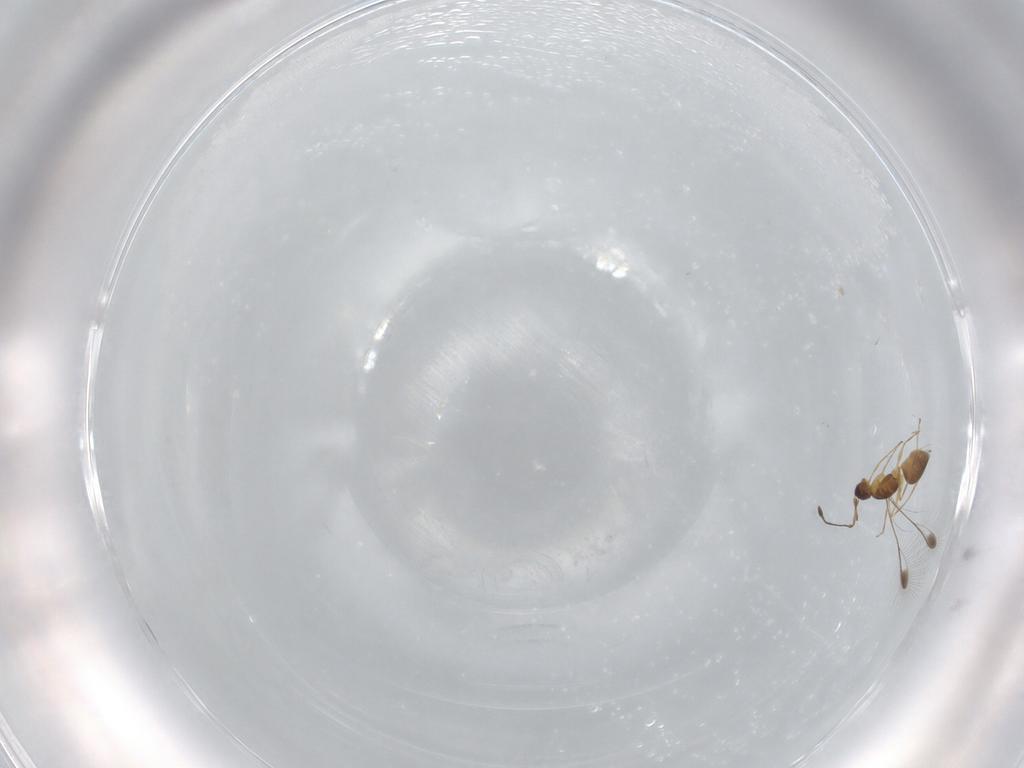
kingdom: Animalia
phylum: Arthropoda
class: Insecta
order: Hymenoptera
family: Mymaridae
